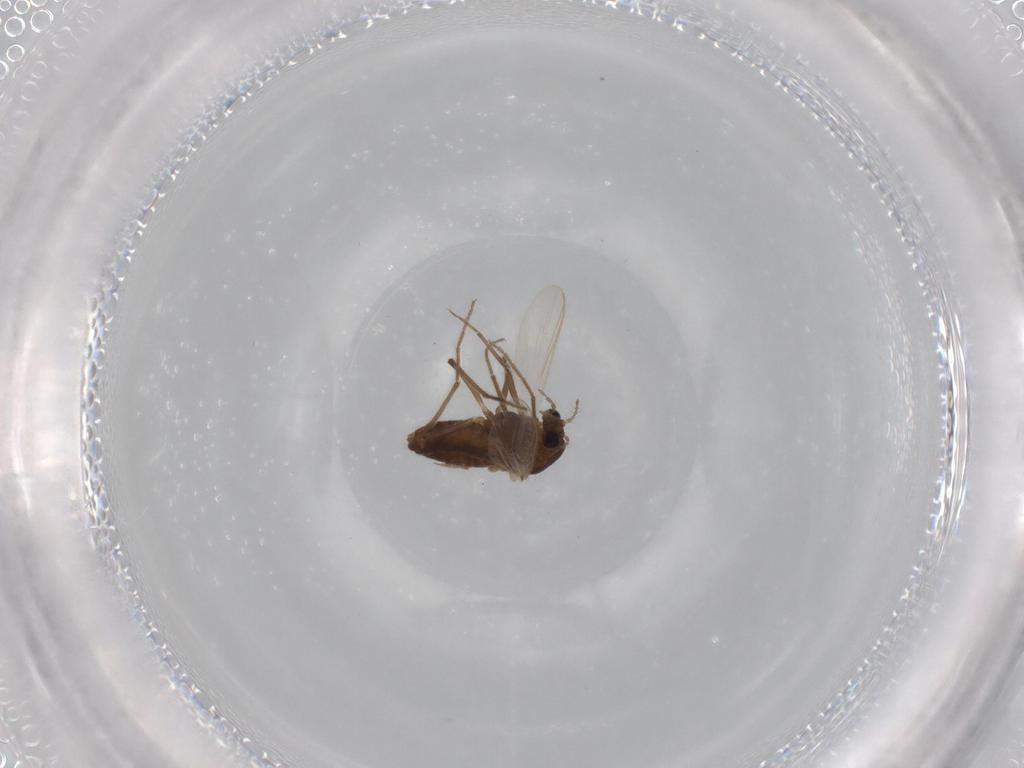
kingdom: Animalia
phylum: Arthropoda
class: Insecta
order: Diptera
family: Chironomidae
